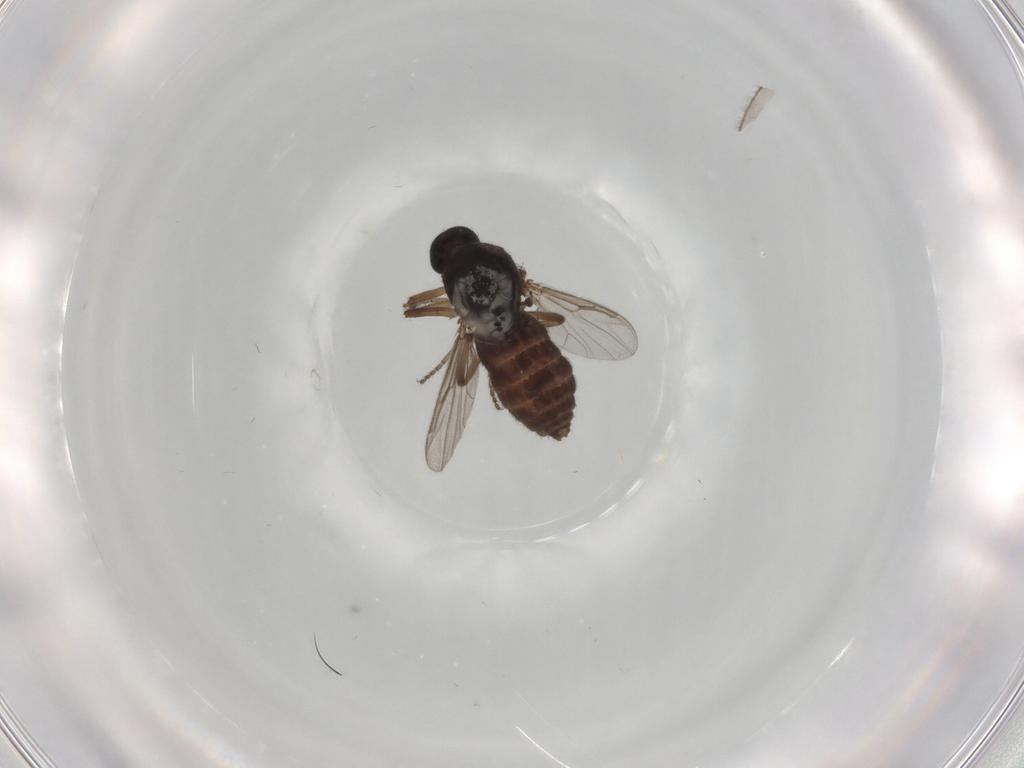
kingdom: Animalia
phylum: Arthropoda
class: Insecta
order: Diptera
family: Ceratopogonidae
